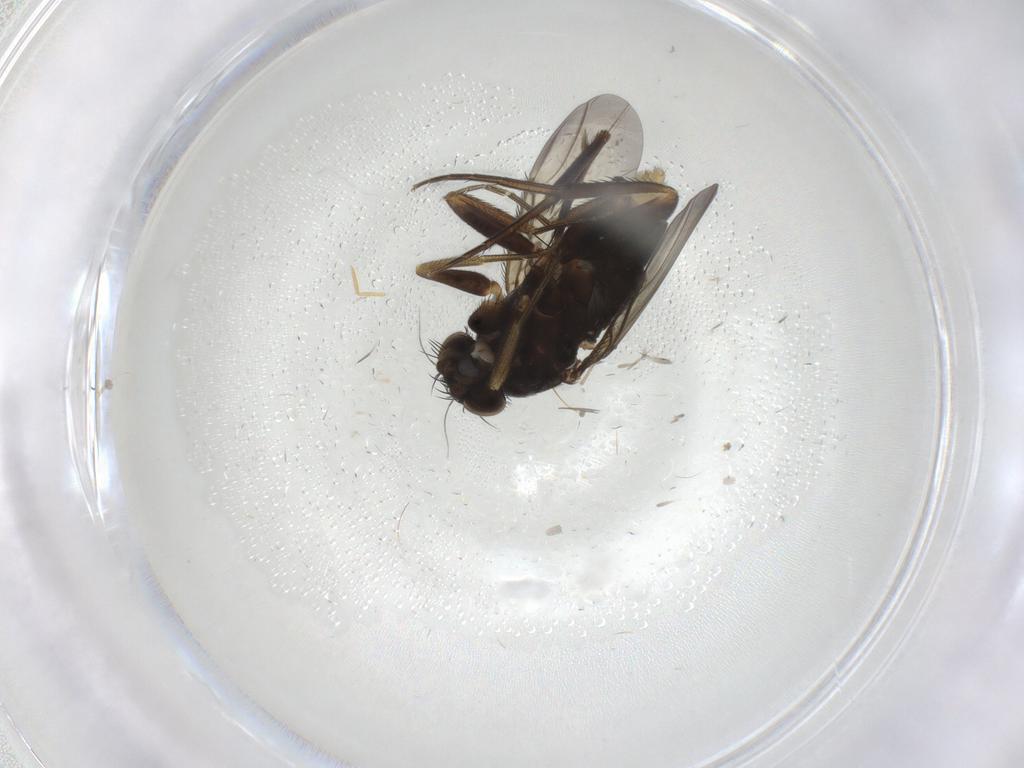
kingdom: Animalia
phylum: Arthropoda
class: Insecta
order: Diptera
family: Phoridae
